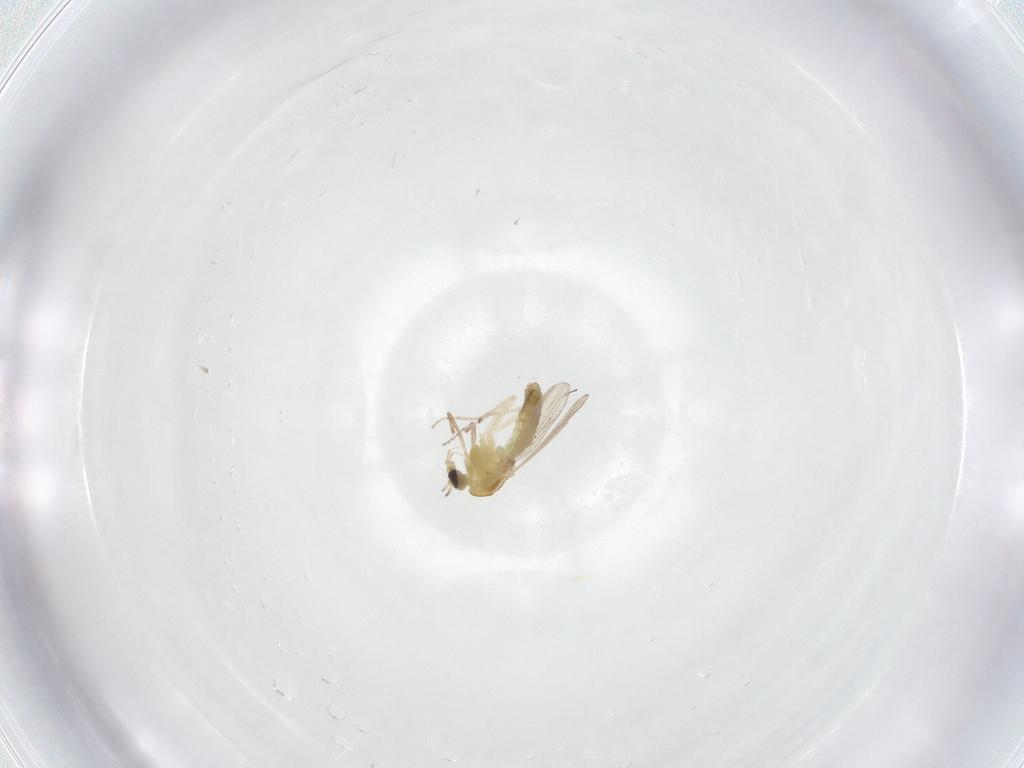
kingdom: Animalia
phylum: Arthropoda
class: Insecta
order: Diptera
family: Chironomidae
